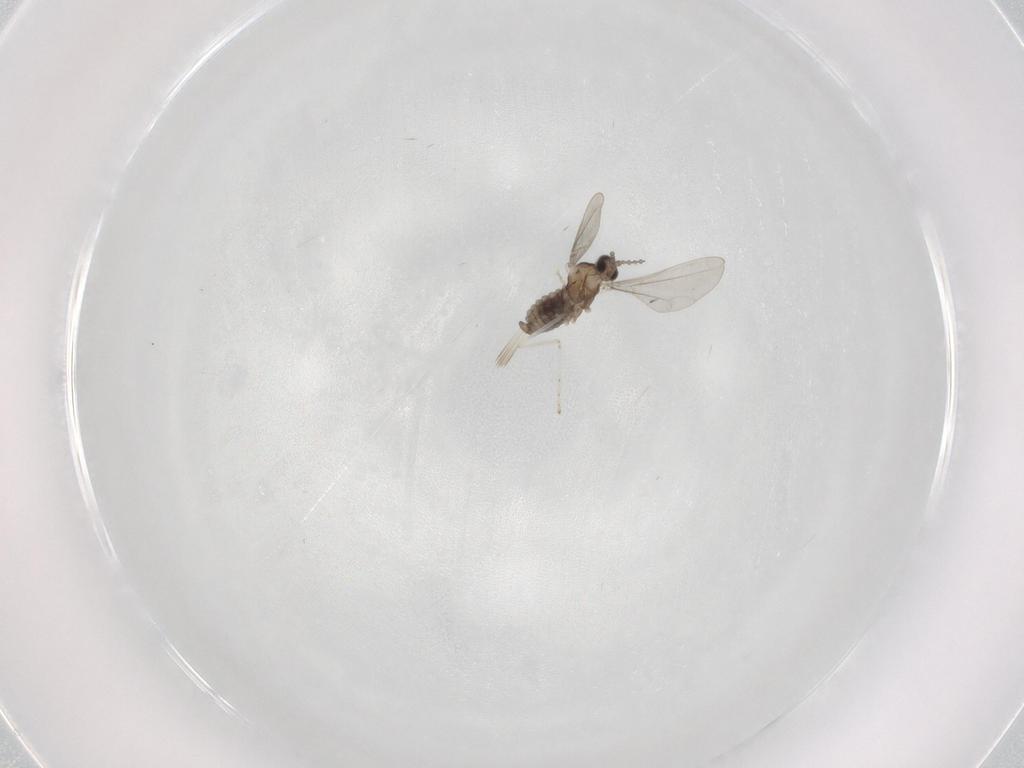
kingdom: Animalia
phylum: Arthropoda
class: Insecta
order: Diptera
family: Cecidomyiidae
